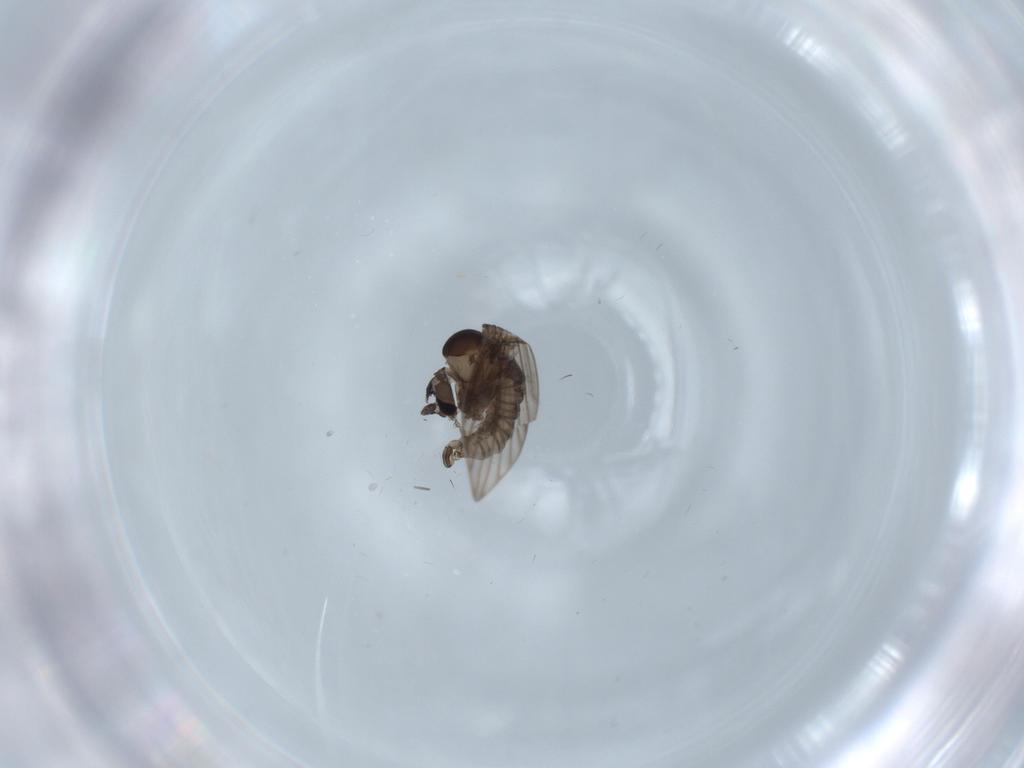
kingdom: Animalia
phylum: Arthropoda
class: Insecta
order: Diptera
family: Psychodidae
